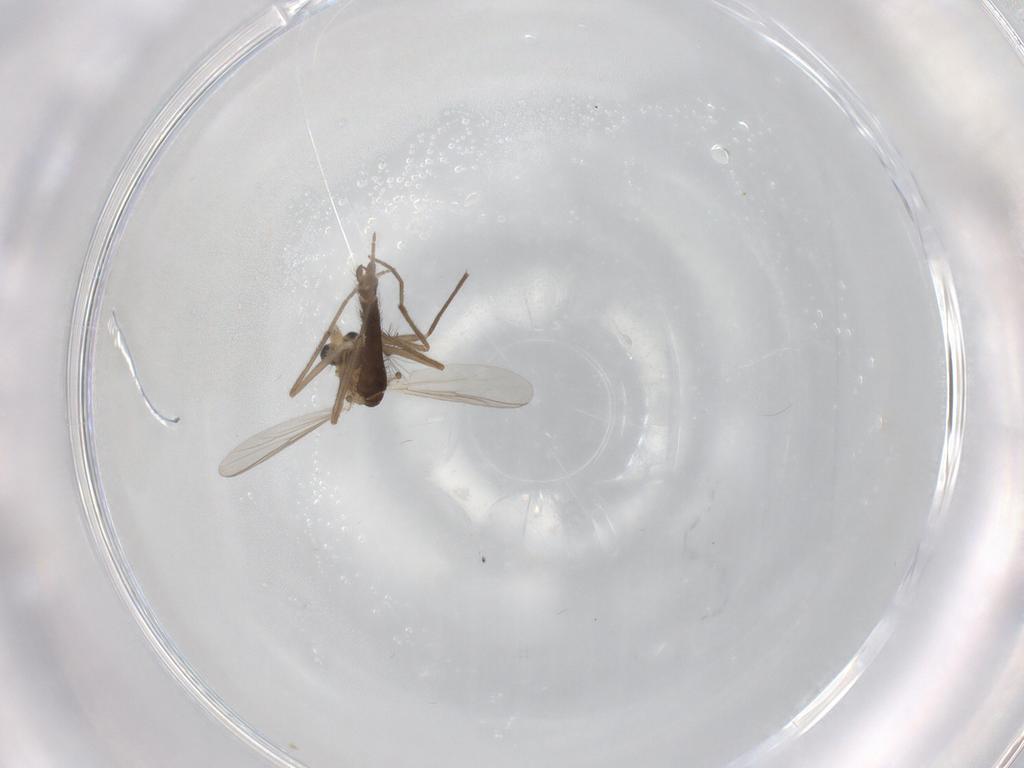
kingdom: Animalia
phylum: Arthropoda
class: Insecta
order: Diptera
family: Chironomidae
